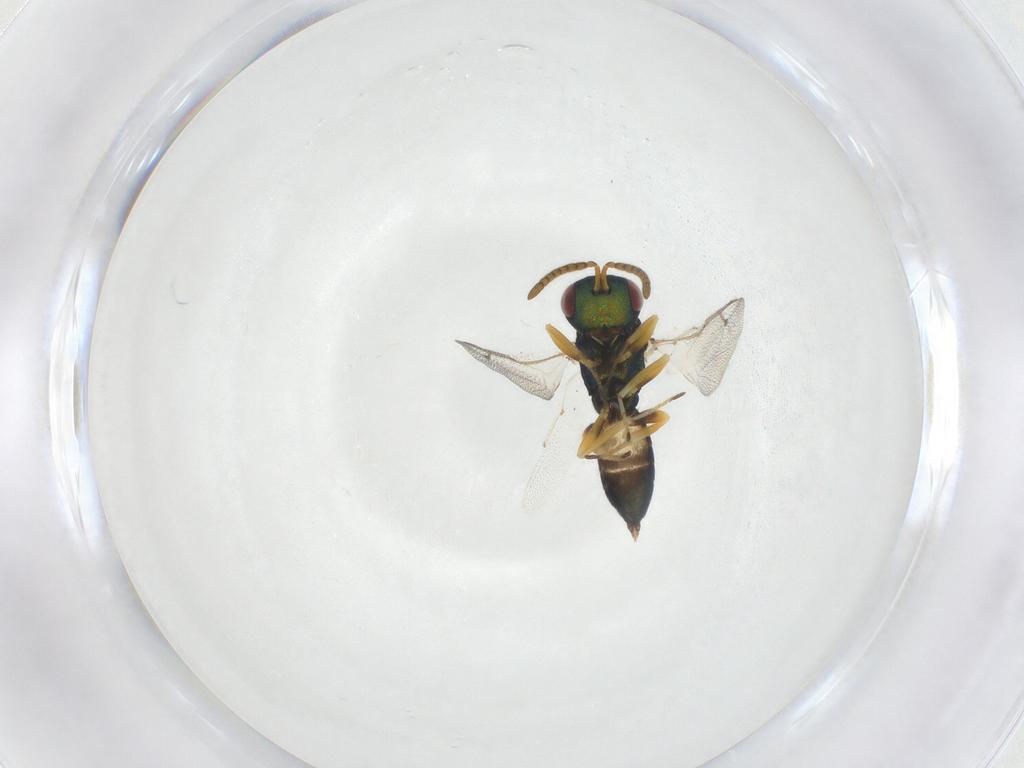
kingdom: Animalia
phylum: Arthropoda
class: Insecta
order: Hymenoptera
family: Pteromalidae
